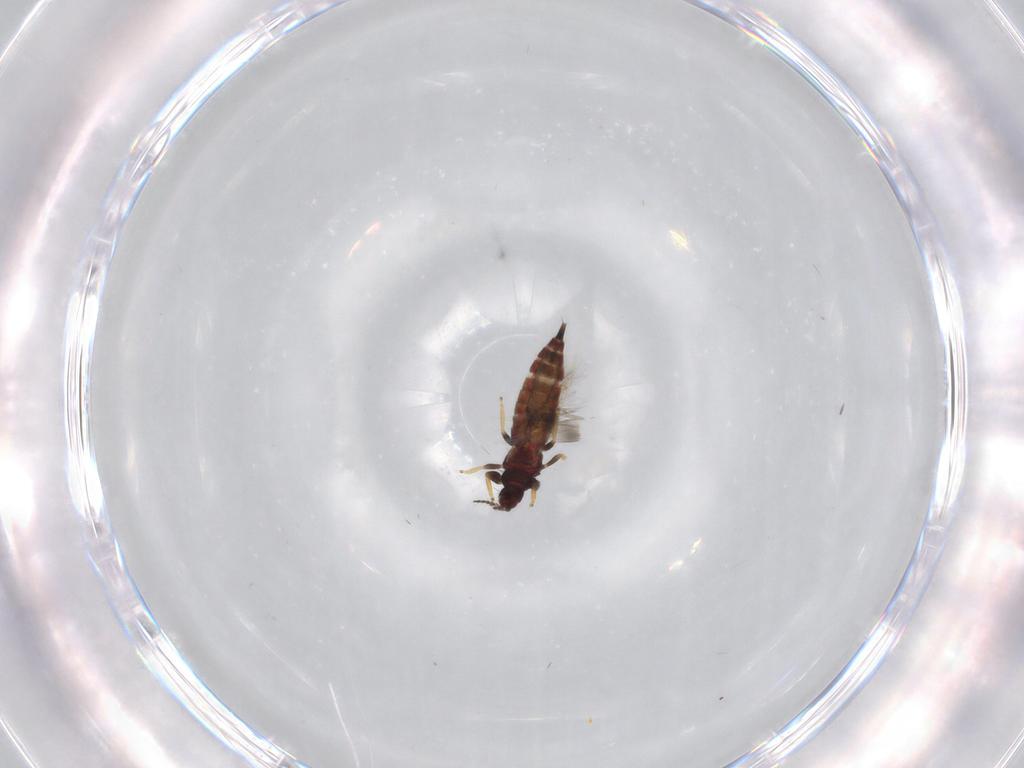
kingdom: Animalia
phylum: Arthropoda
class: Insecta
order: Thysanoptera
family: Phlaeothripidae
